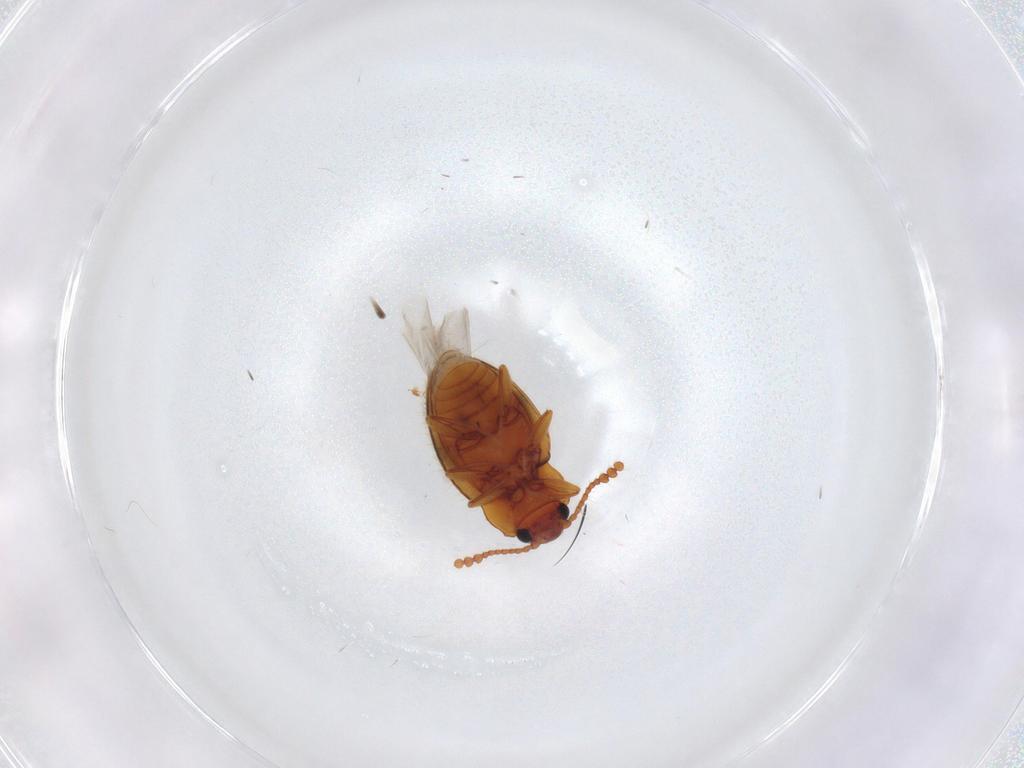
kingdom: Animalia
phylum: Arthropoda
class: Insecta
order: Coleoptera
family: Erotylidae
